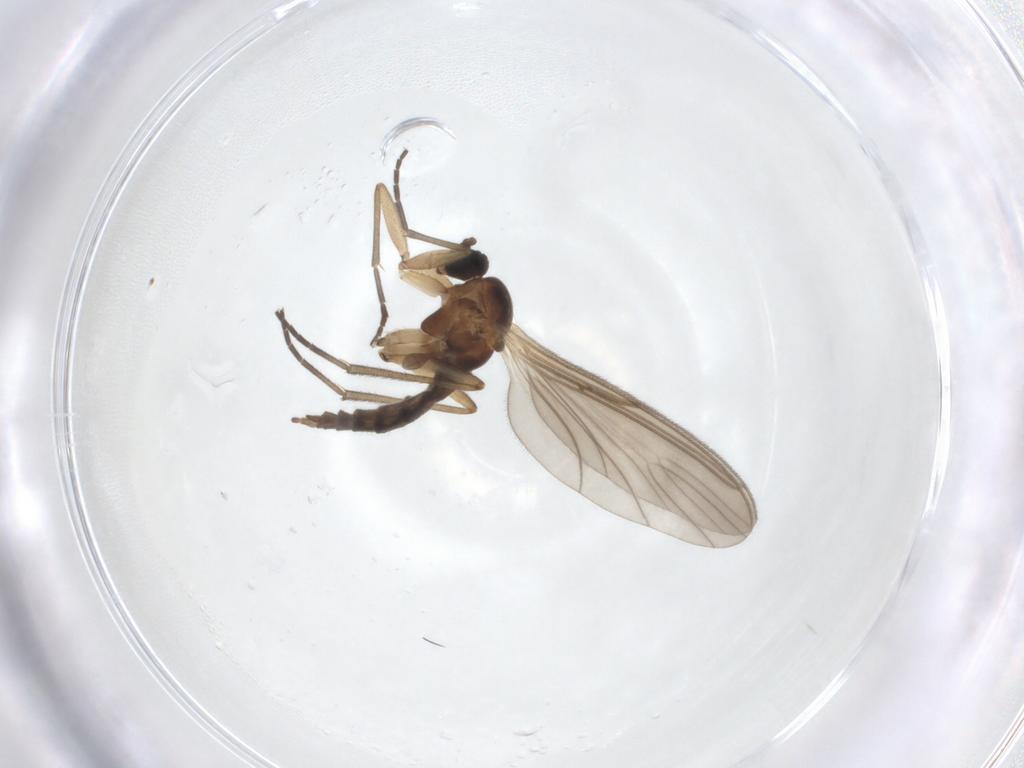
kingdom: Animalia
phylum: Arthropoda
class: Insecta
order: Diptera
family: Sciaridae
